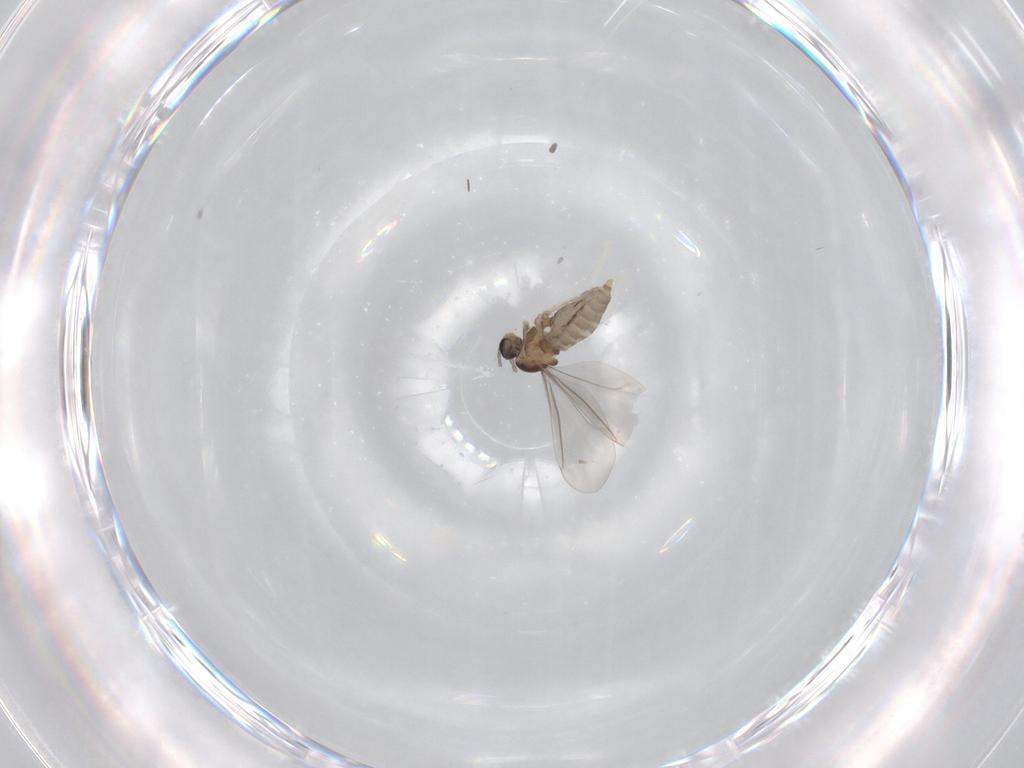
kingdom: Animalia
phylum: Arthropoda
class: Insecta
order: Diptera
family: Cecidomyiidae
